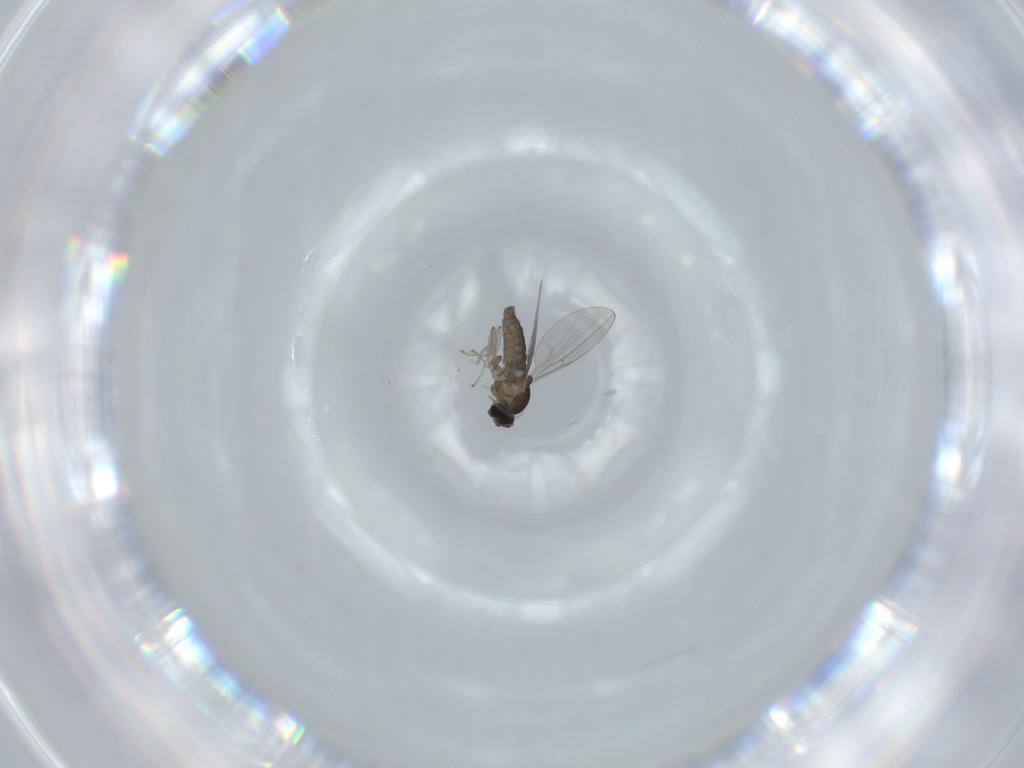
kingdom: Animalia
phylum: Arthropoda
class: Insecta
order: Diptera
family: Cecidomyiidae
